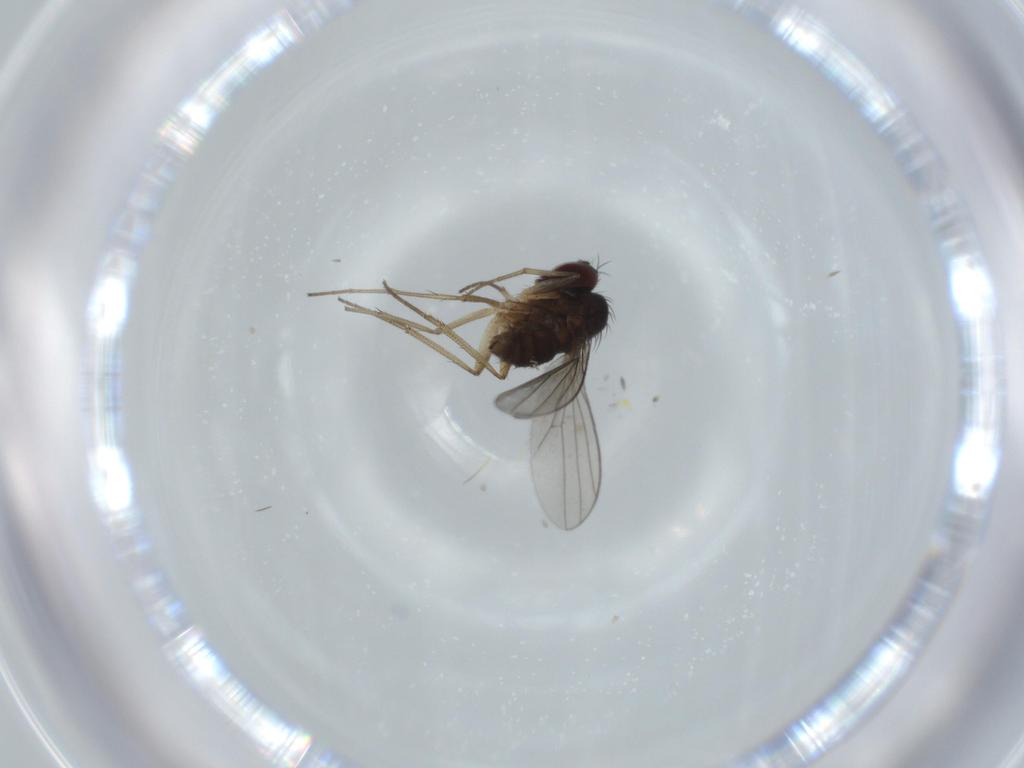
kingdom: Animalia
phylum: Arthropoda
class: Insecta
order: Diptera
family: Dolichopodidae
